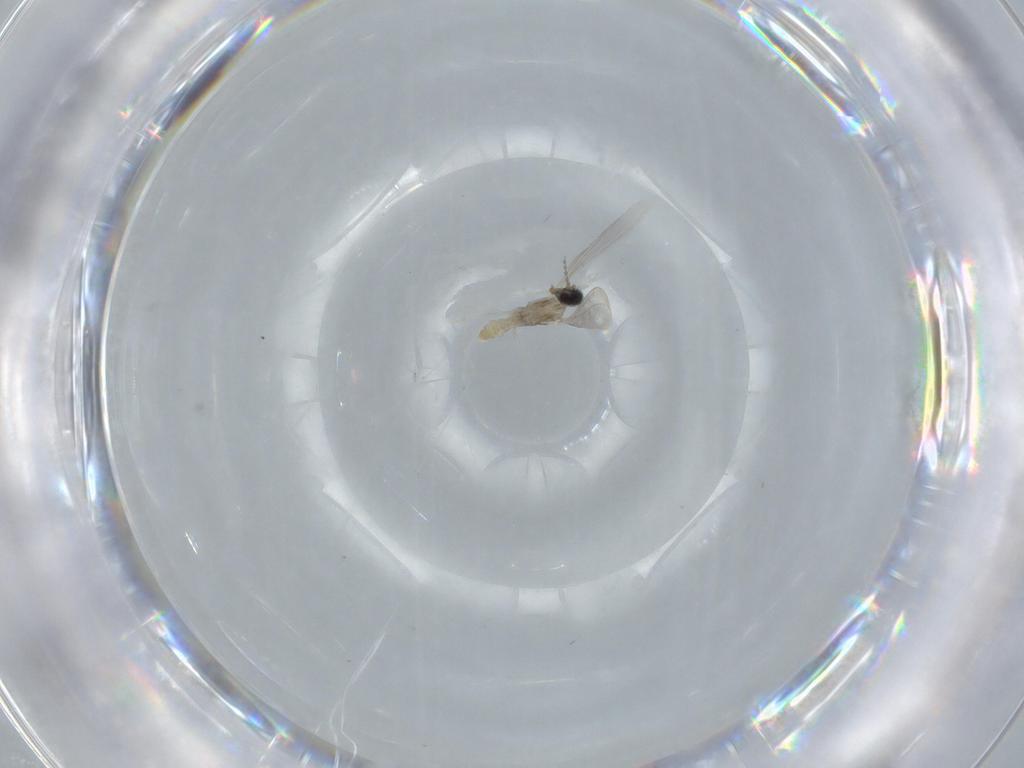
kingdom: Animalia
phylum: Arthropoda
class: Insecta
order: Diptera
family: Cecidomyiidae
